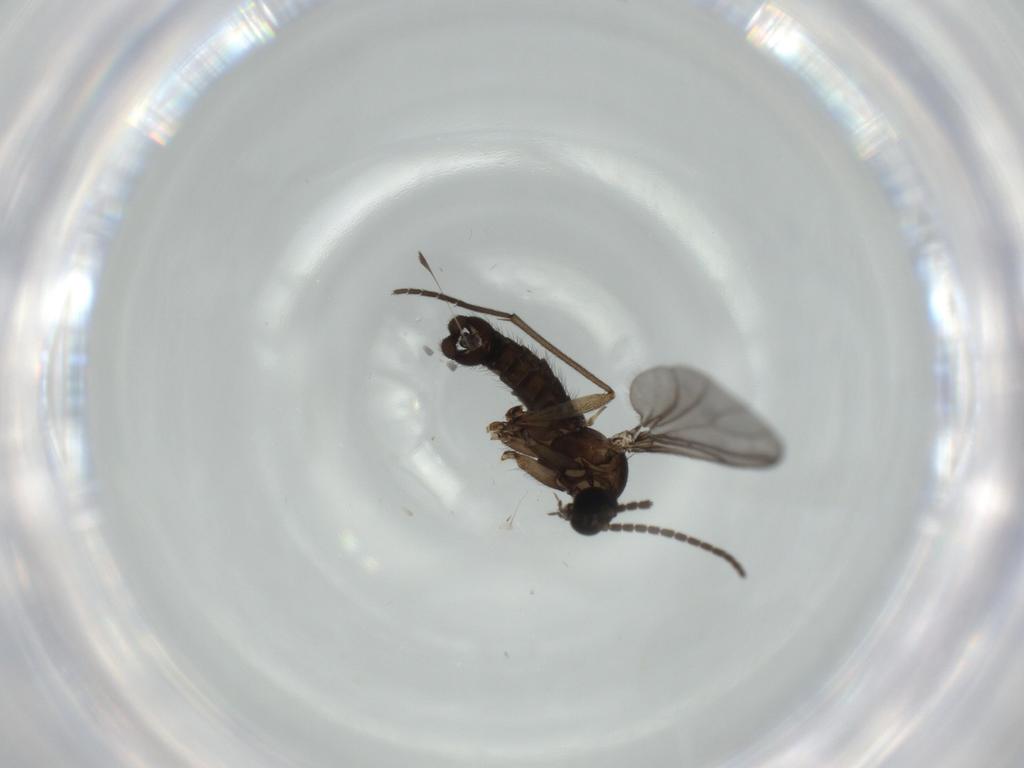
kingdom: Animalia
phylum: Arthropoda
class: Insecta
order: Diptera
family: Sciaridae
